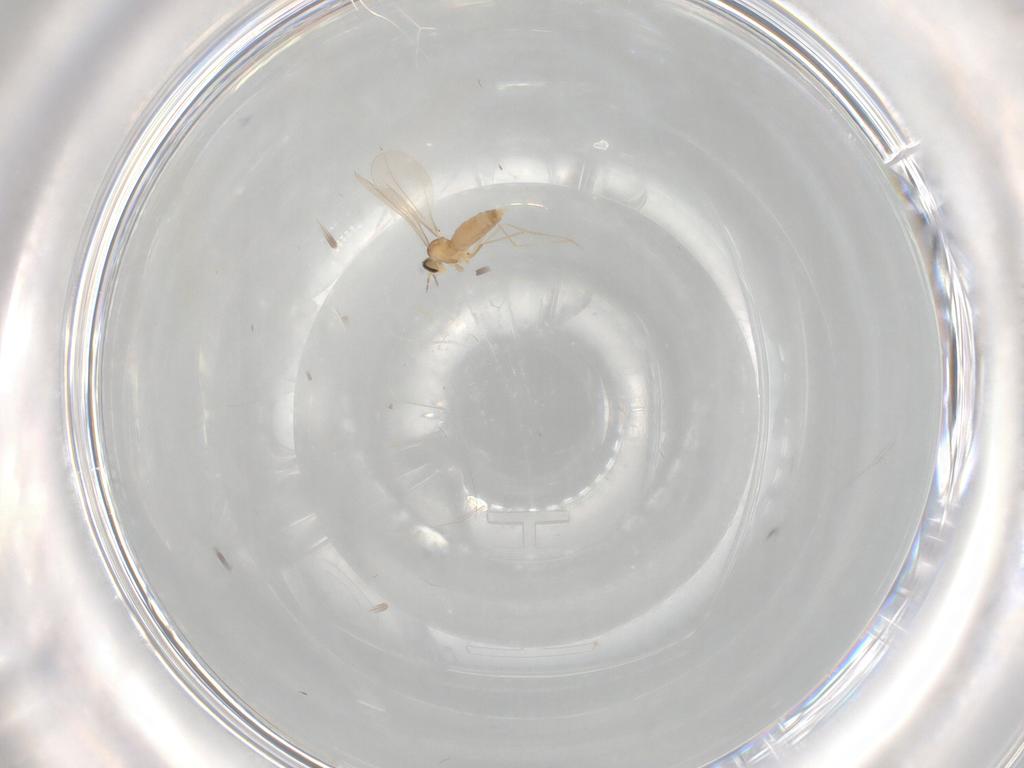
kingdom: Animalia
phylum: Arthropoda
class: Insecta
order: Diptera
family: Cecidomyiidae
